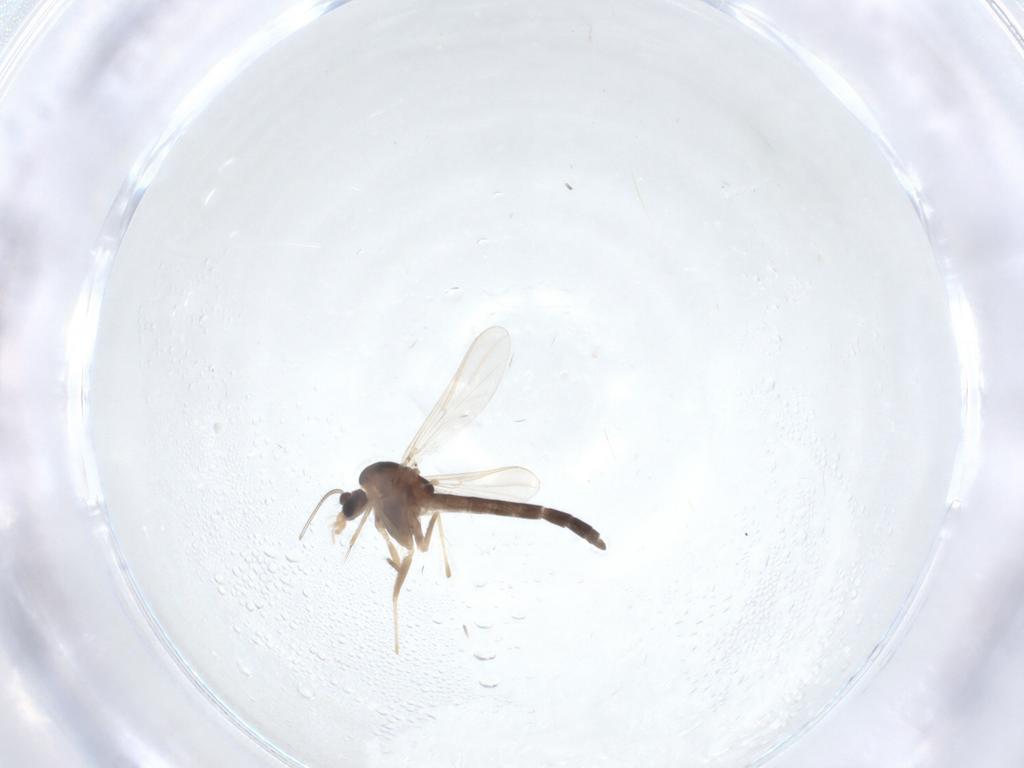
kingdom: Animalia
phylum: Arthropoda
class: Insecta
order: Diptera
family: Chironomidae
